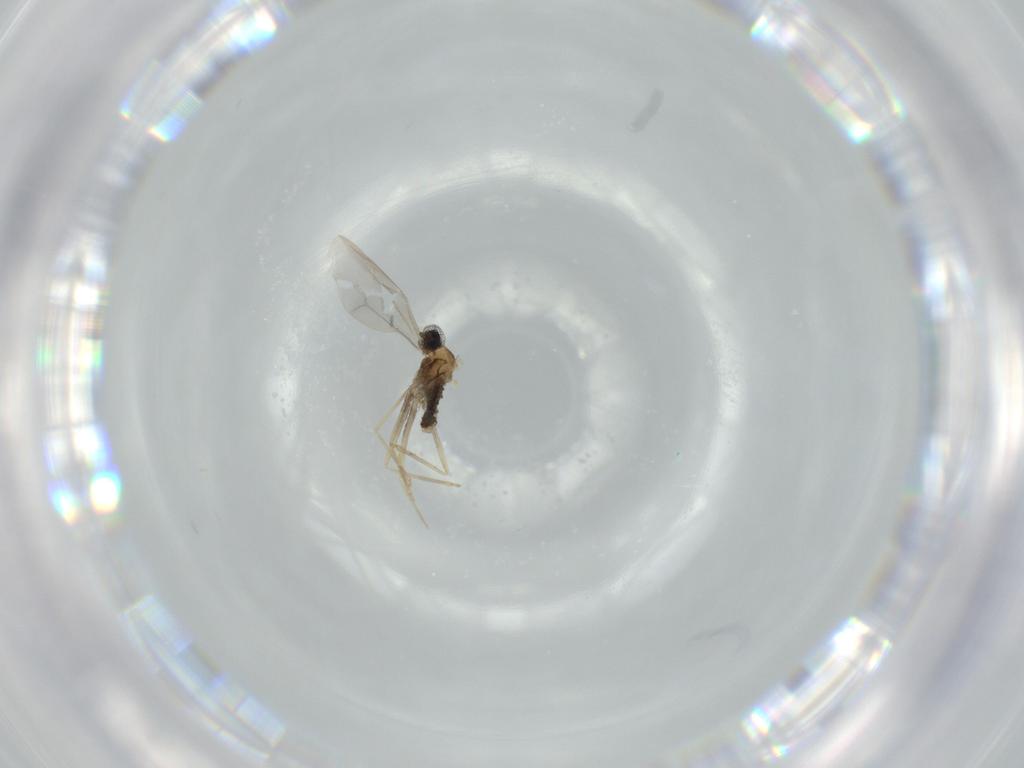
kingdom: Animalia
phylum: Arthropoda
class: Insecta
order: Diptera
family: Cecidomyiidae
